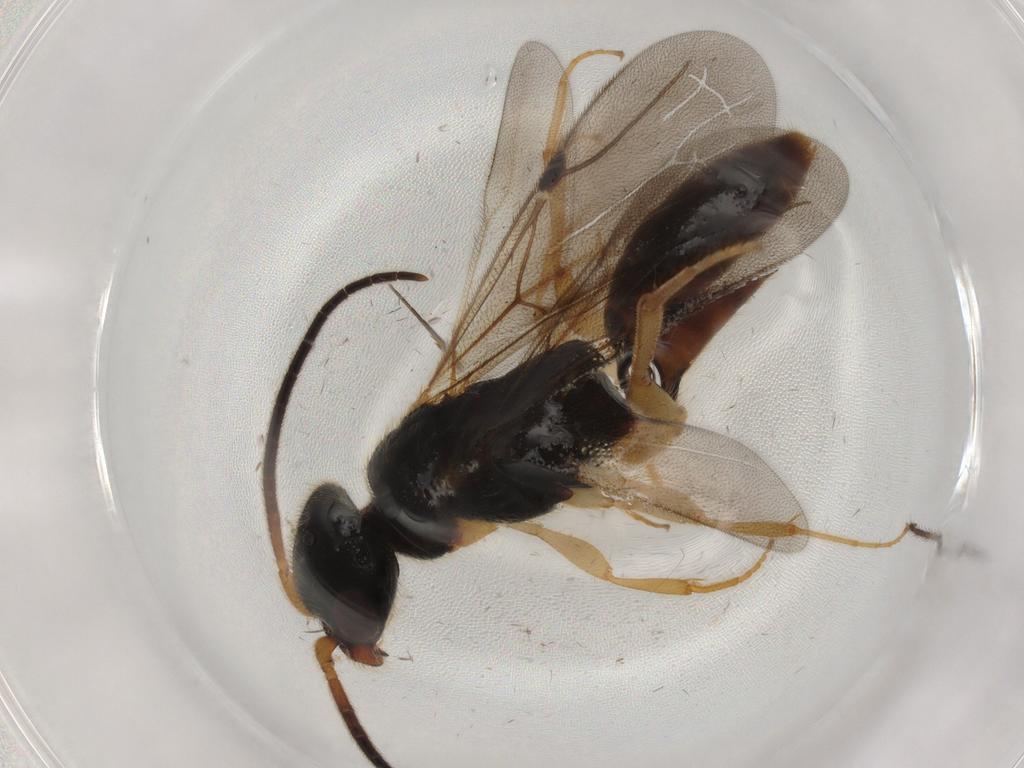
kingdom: Animalia
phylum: Arthropoda
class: Insecta
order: Hymenoptera
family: Bethylidae
